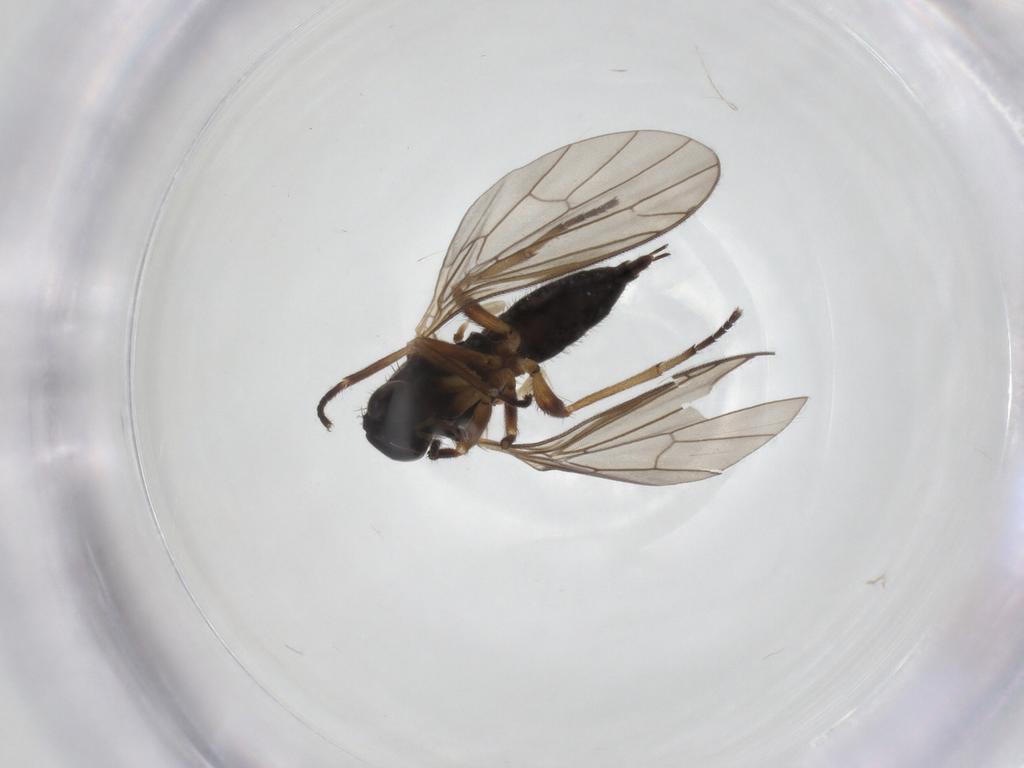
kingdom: Animalia
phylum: Arthropoda
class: Insecta
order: Diptera
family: Empididae
